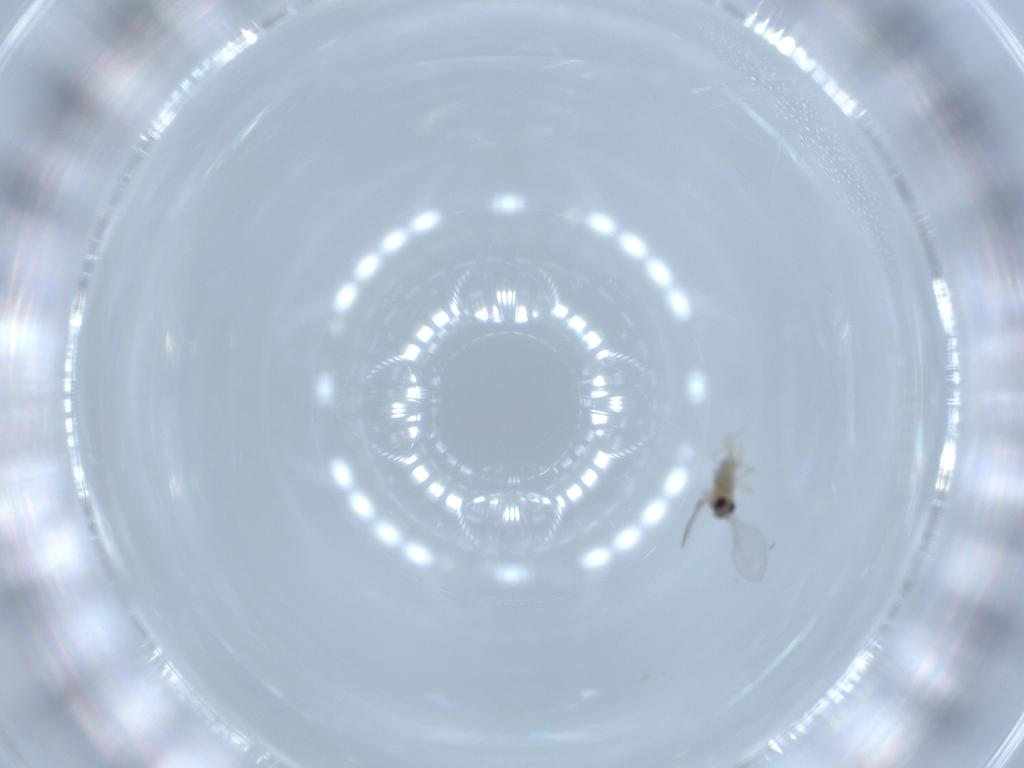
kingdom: Animalia
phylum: Arthropoda
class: Insecta
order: Diptera
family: Cecidomyiidae
